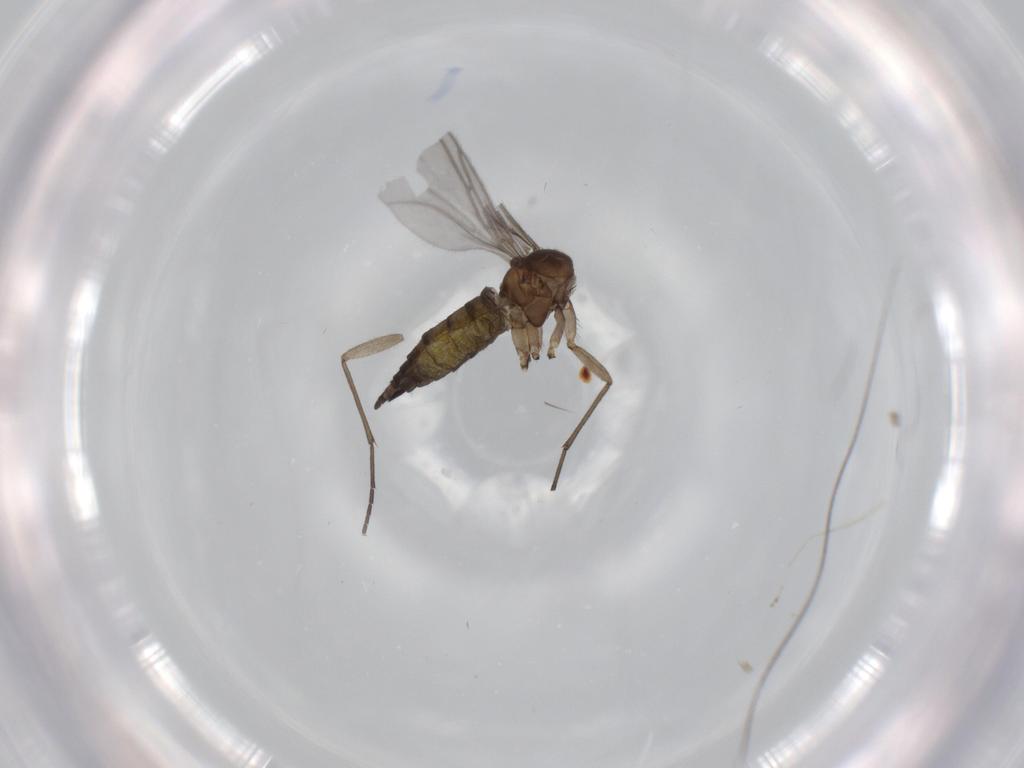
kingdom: Animalia
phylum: Arthropoda
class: Insecta
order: Diptera
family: Sciaridae
